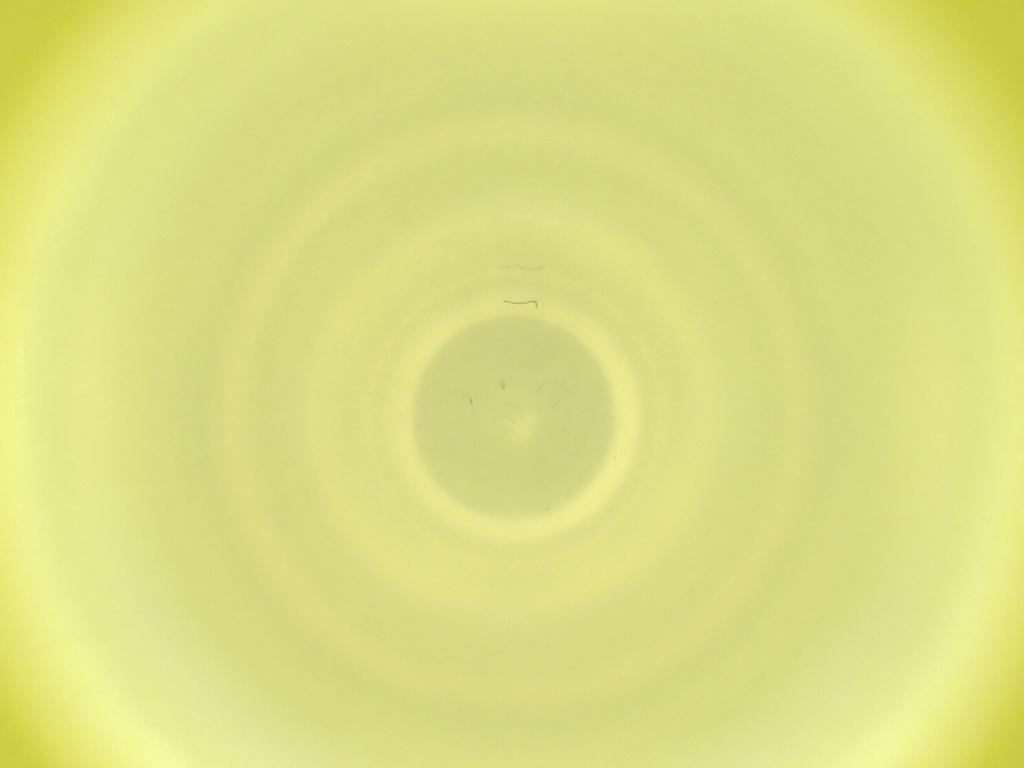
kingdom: Animalia
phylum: Arthropoda
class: Insecta
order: Diptera
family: Cecidomyiidae
